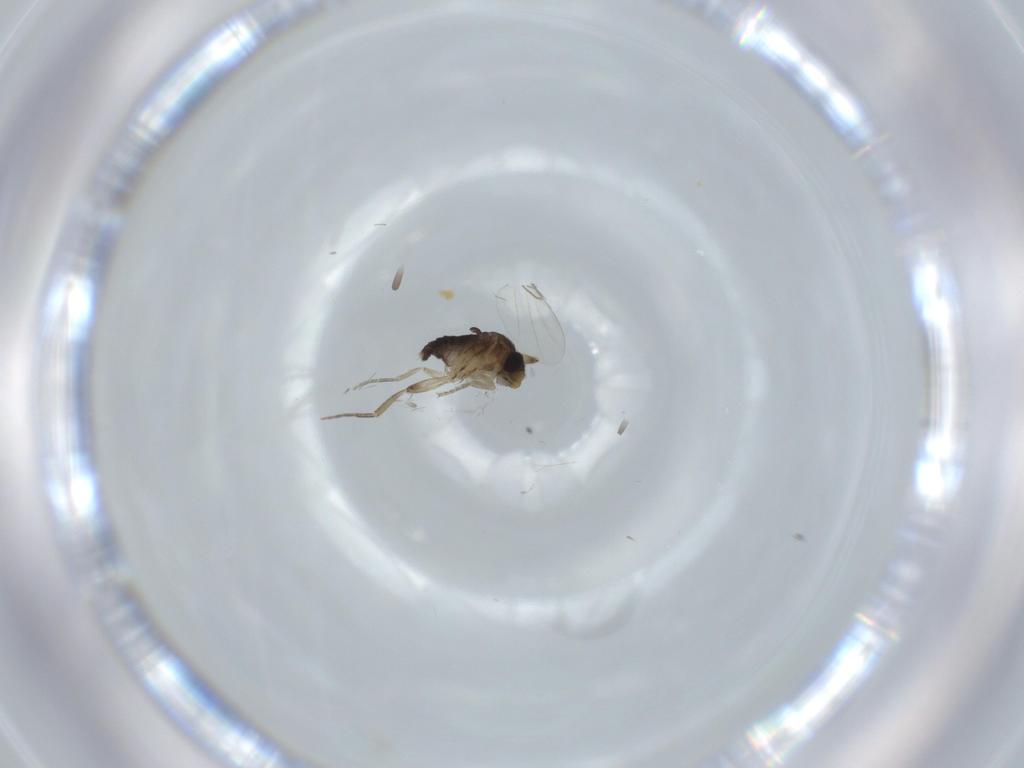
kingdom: Animalia
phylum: Arthropoda
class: Insecta
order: Diptera
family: Phoridae
